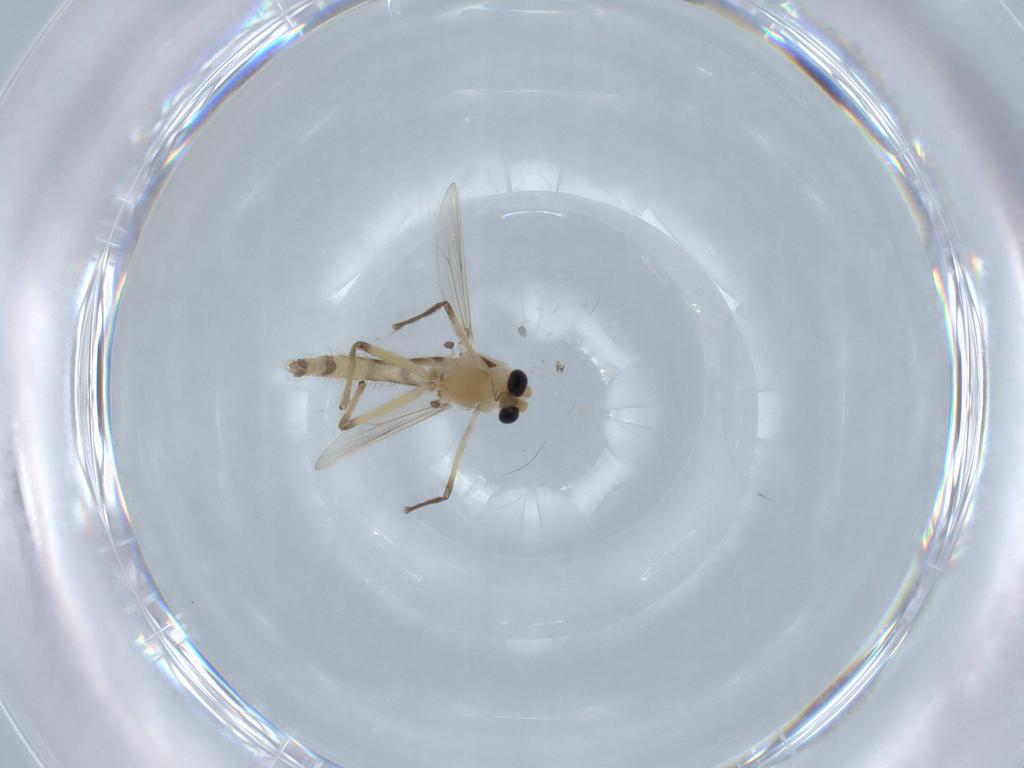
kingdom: Animalia
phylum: Arthropoda
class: Insecta
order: Diptera
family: Chironomidae
